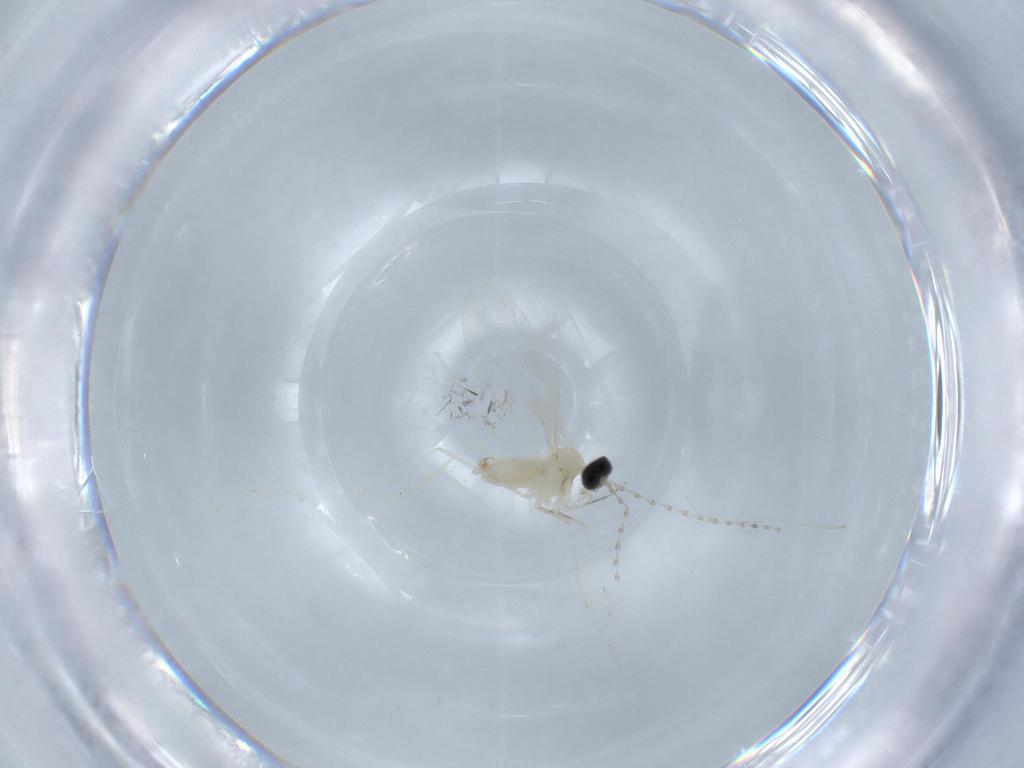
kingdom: Animalia
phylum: Arthropoda
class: Insecta
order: Diptera
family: Cecidomyiidae
